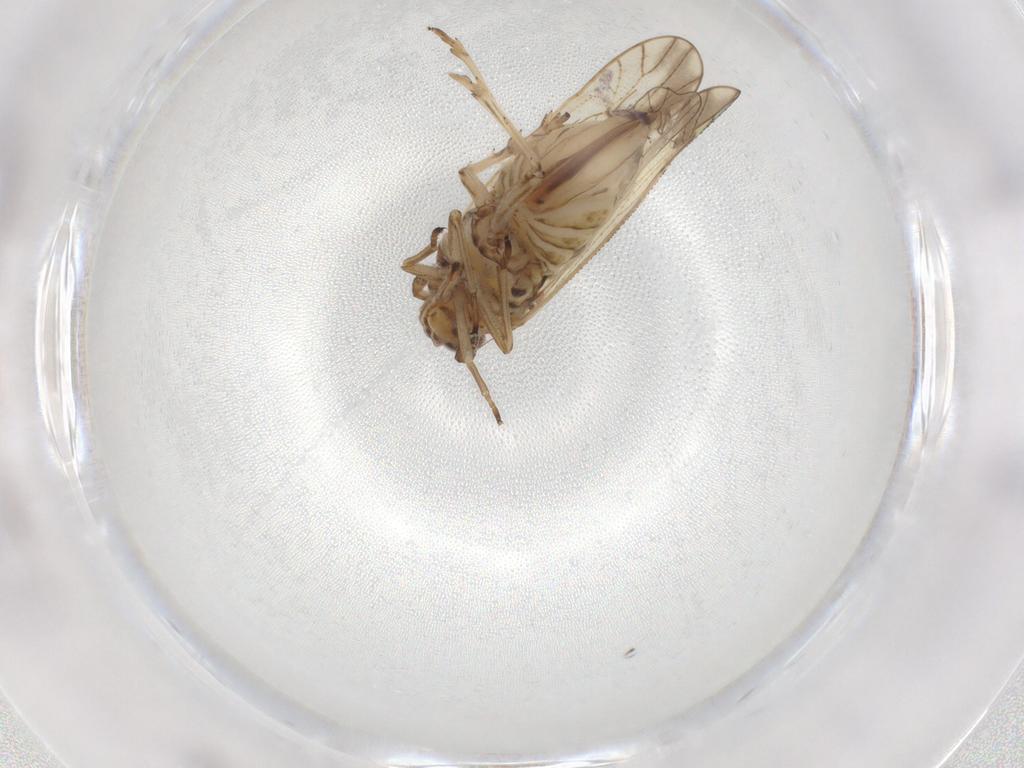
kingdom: Animalia
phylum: Arthropoda
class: Insecta
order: Hemiptera
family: Delphacidae
